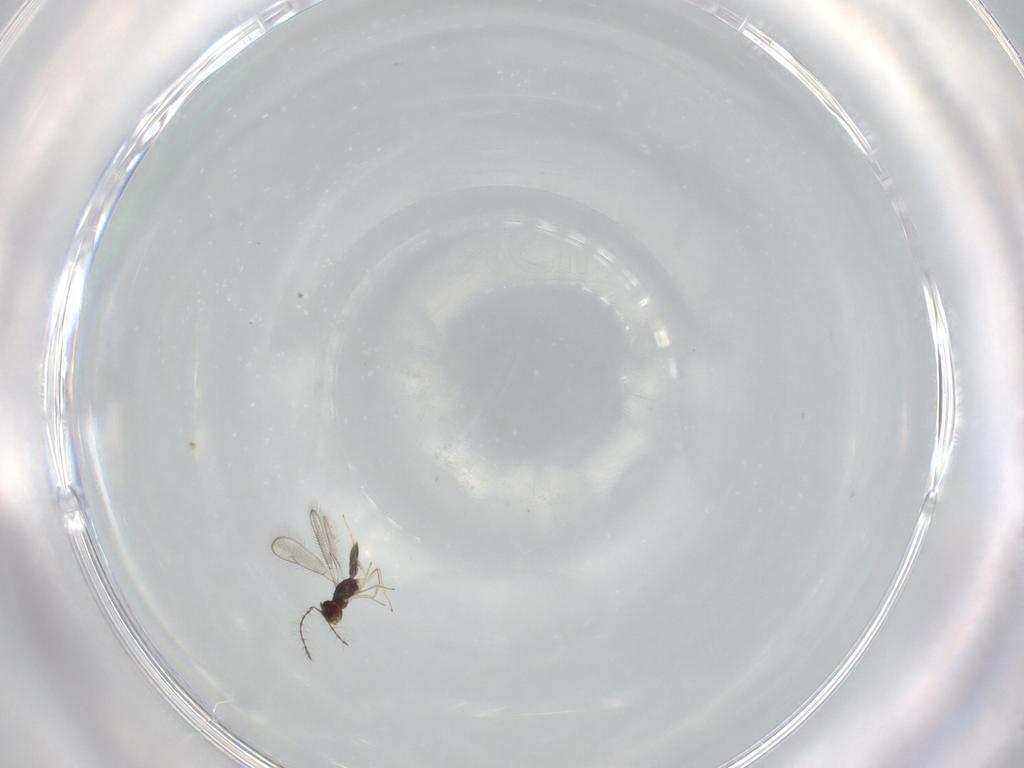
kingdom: Animalia
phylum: Arthropoda
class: Insecta
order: Hymenoptera
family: Pteromalidae
